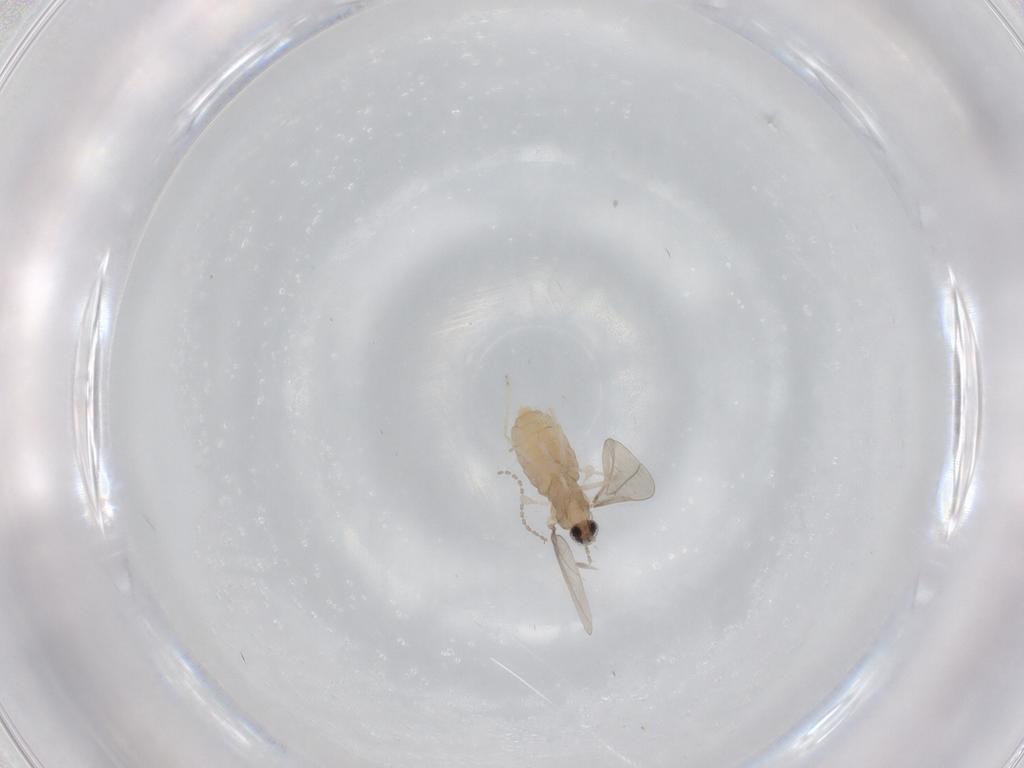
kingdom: Animalia
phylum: Arthropoda
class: Insecta
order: Diptera
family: Cecidomyiidae
